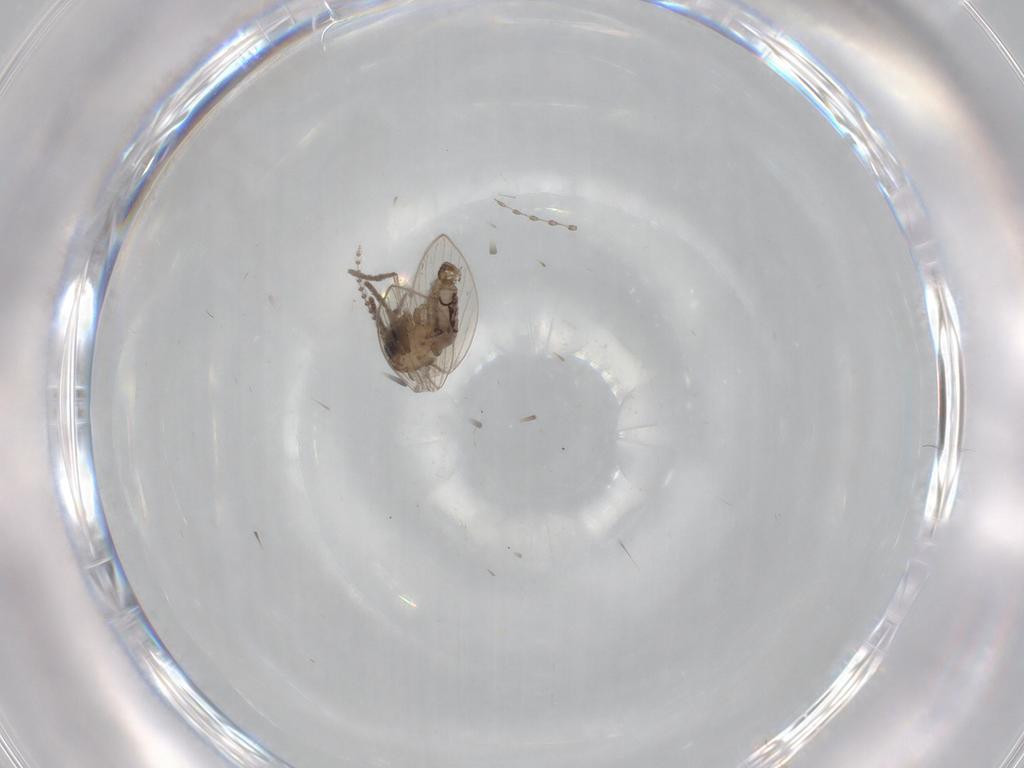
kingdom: Animalia
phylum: Arthropoda
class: Insecta
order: Diptera
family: Psychodidae
